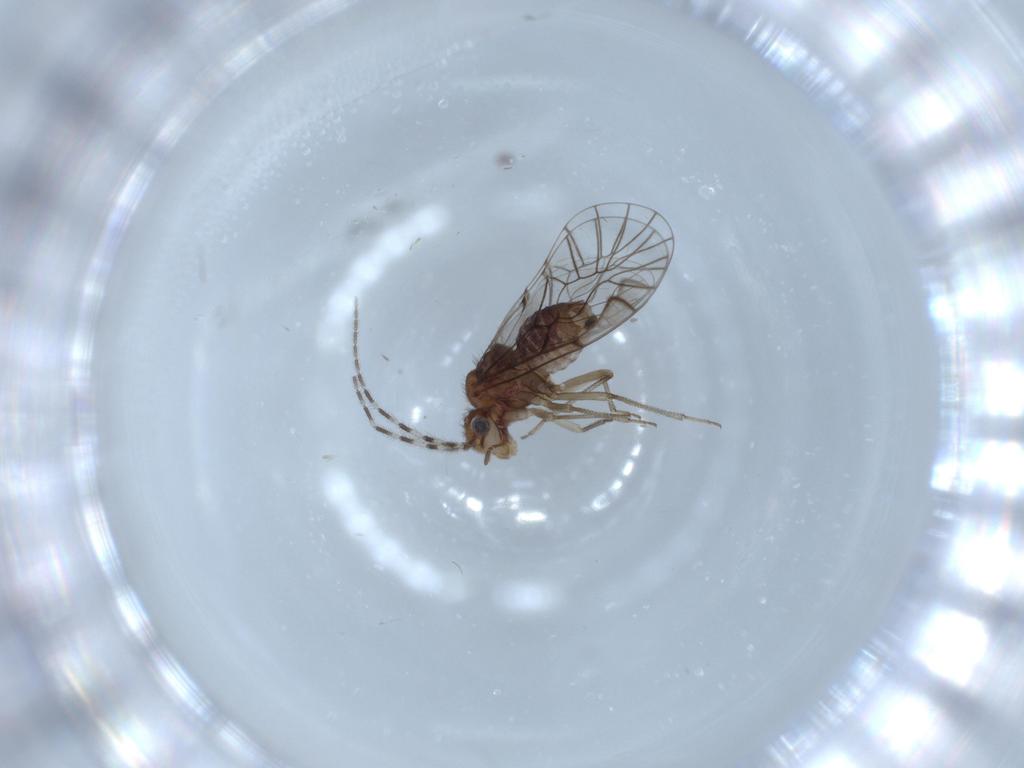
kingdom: Animalia
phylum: Arthropoda
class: Insecta
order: Psocodea
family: Amphipsocidae
